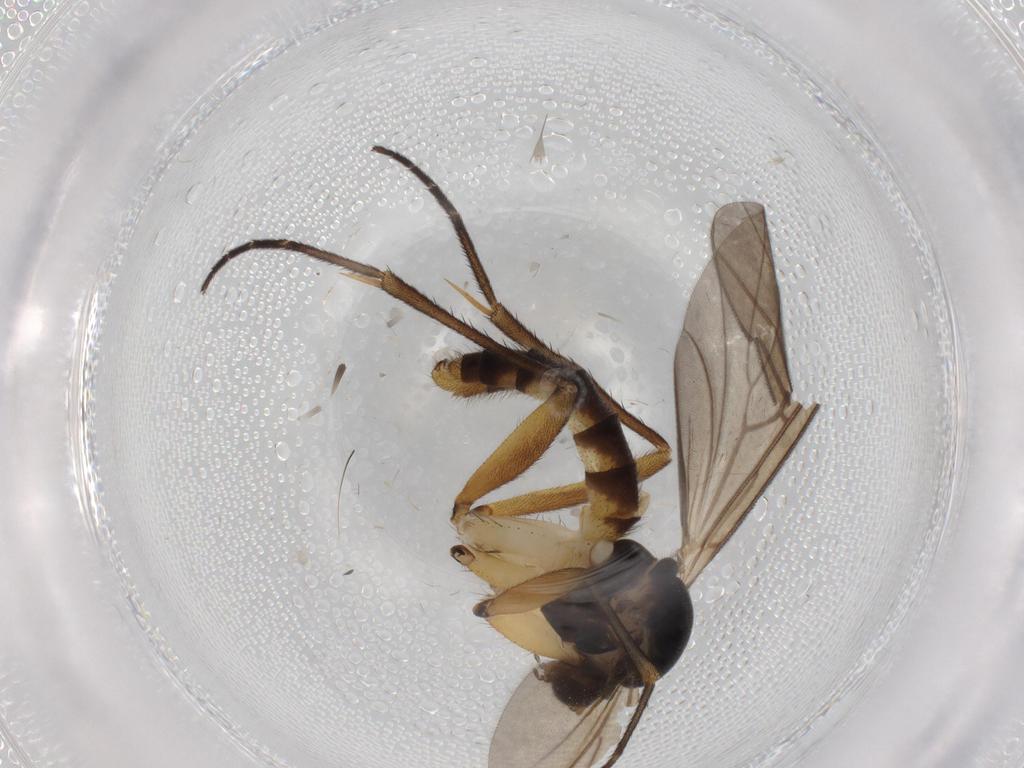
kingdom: Animalia
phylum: Arthropoda
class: Insecta
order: Diptera
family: Mycetophilidae
